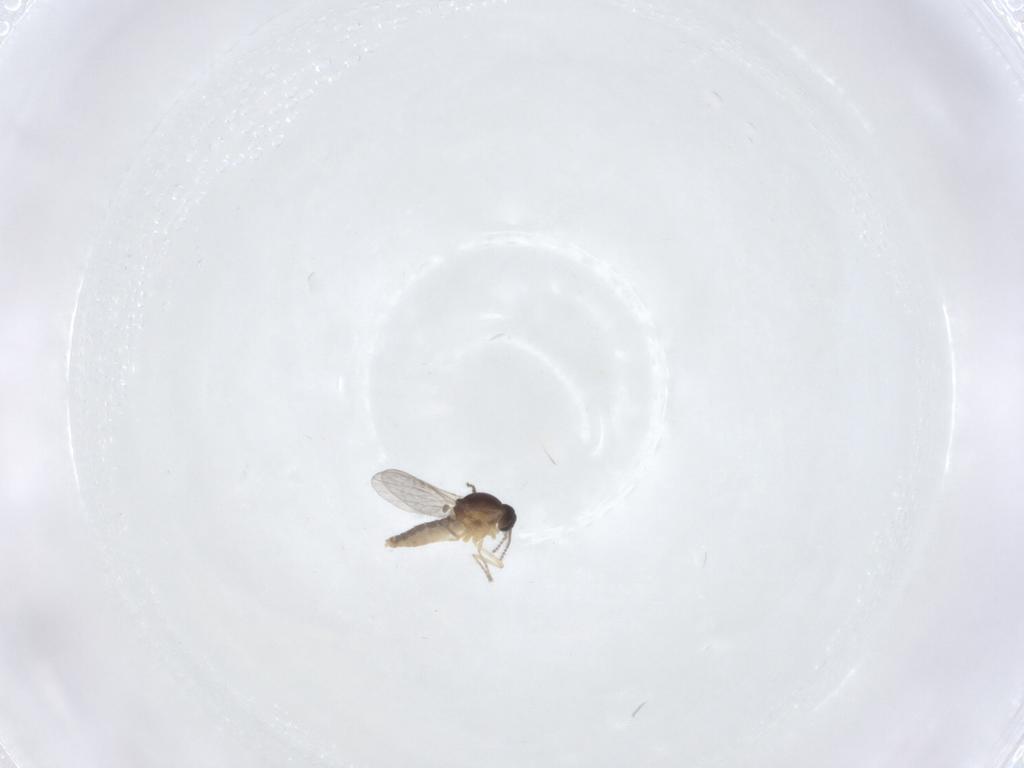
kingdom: Animalia
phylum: Arthropoda
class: Insecta
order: Diptera
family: Ceratopogonidae
